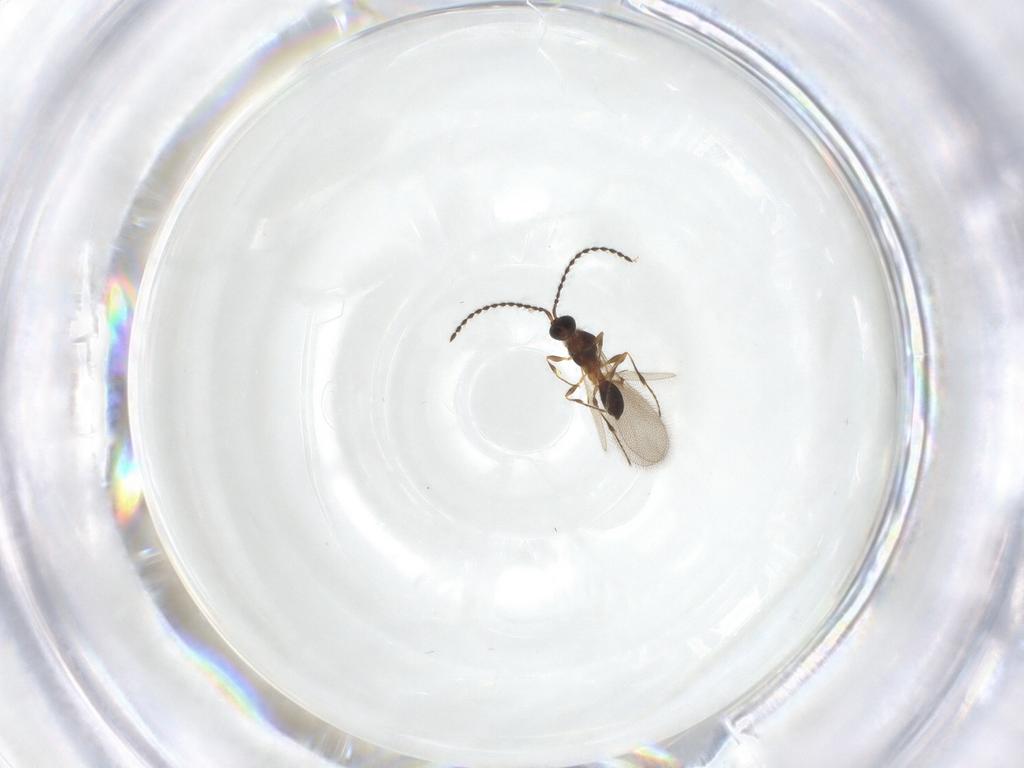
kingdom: Animalia
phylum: Arthropoda
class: Insecta
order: Hymenoptera
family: Diapriidae
